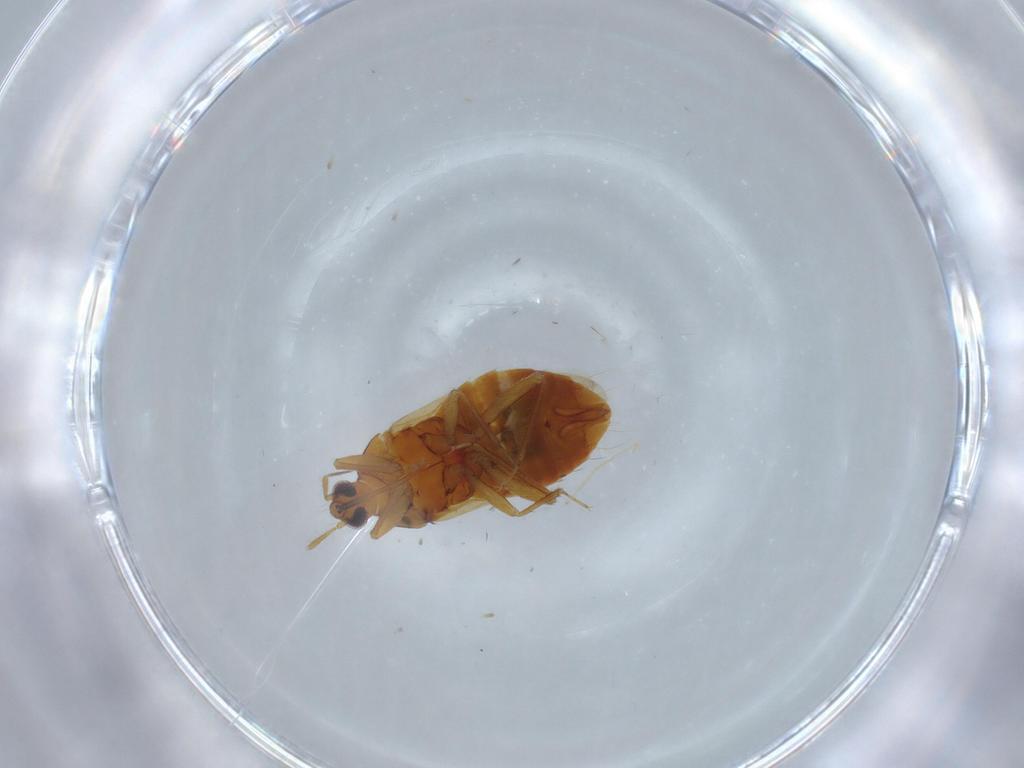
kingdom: Animalia
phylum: Arthropoda
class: Insecta
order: Hemiptera
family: Anthocoridae
